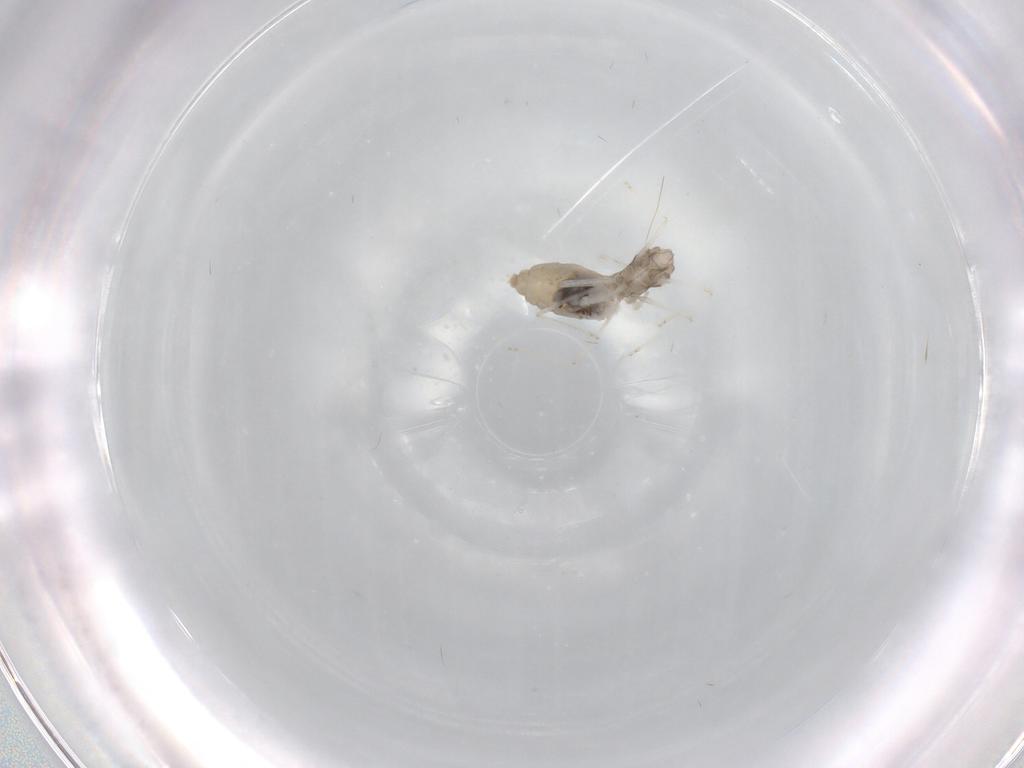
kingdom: Animalia
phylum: Arthropoda
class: Insecta
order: Diptera
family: Ceratopogonidae
